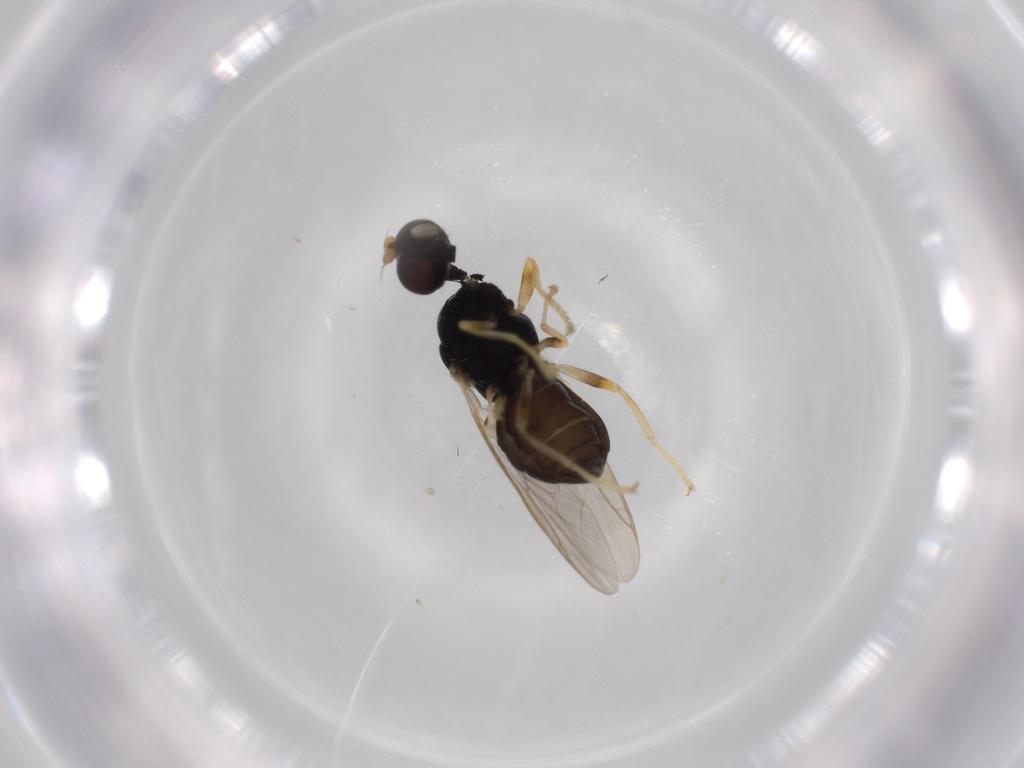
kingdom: Animalia
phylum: Arthropoda
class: Insecta
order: Diptera
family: Stratiomyidae
